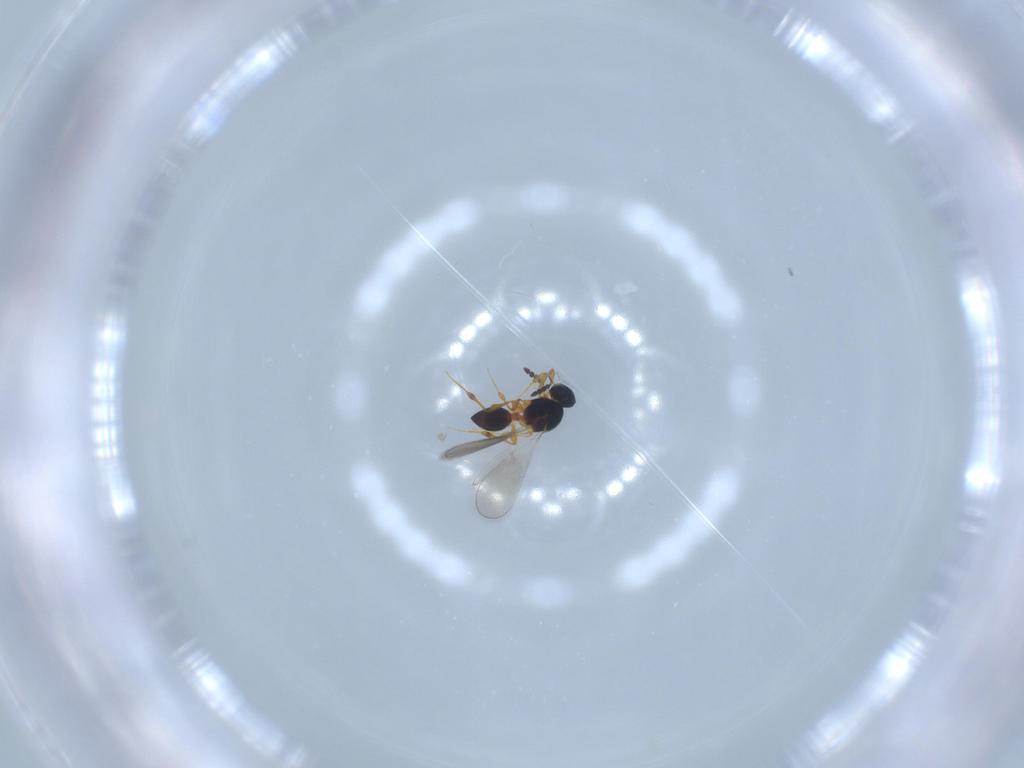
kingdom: Animalia
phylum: Arthropoda
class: Insecta
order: Hymenoptera
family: Platygastridae
